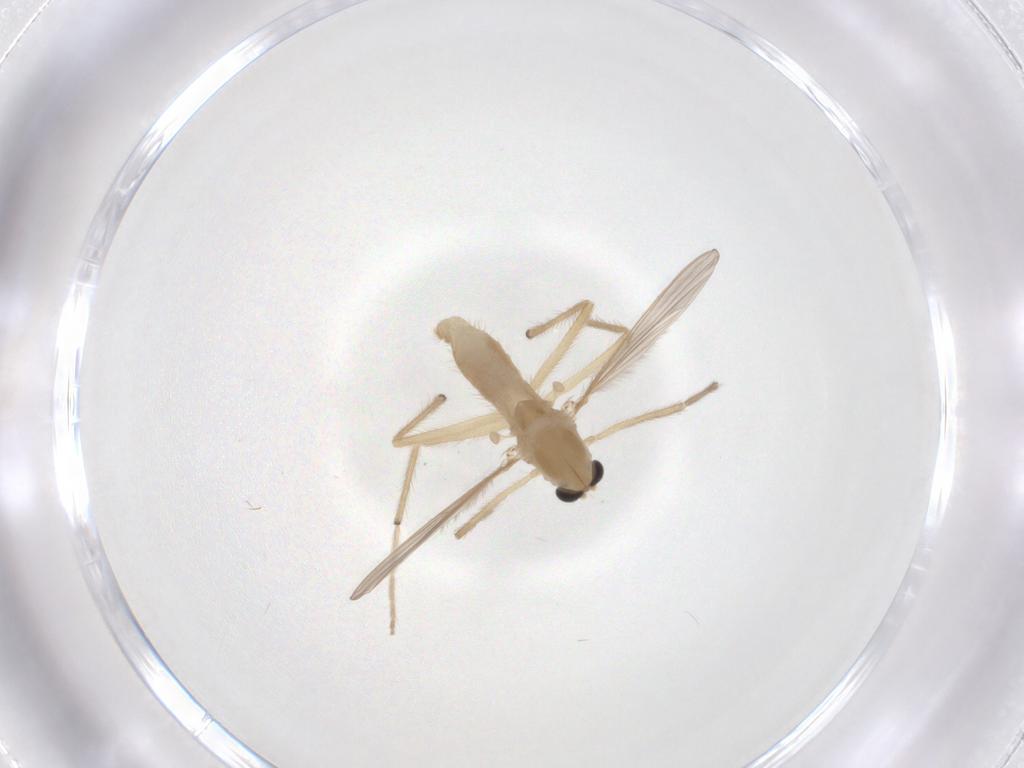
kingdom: Animalia
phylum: Arthropoda
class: Insecta
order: Diptera
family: Chironomidae
